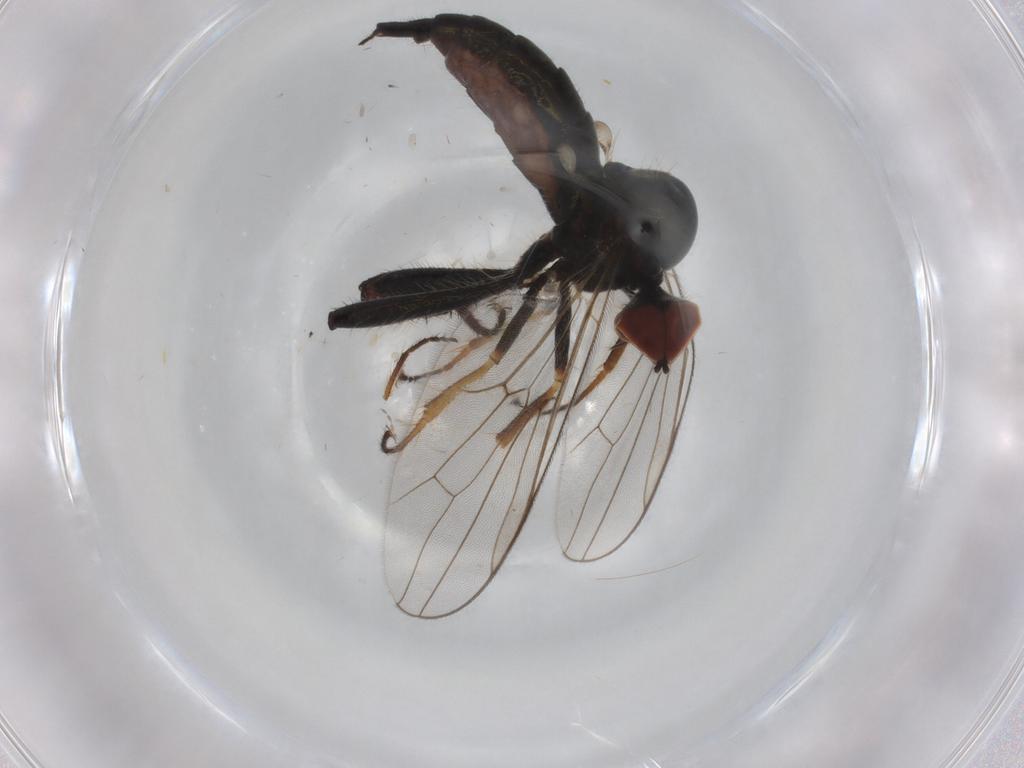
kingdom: Animalia
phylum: Arthropoda
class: Insecta
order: Diptera
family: Hybotidae
